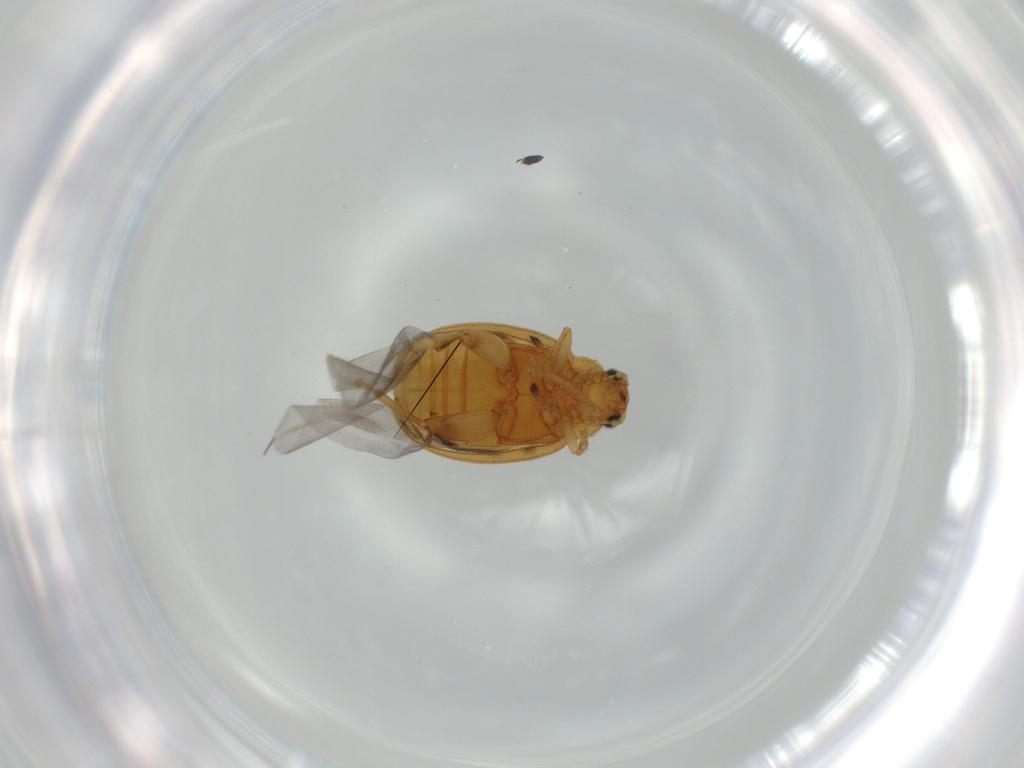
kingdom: Animalia
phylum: Arthropoda
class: Insecta
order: Coleoptera
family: Chrysomelidae
